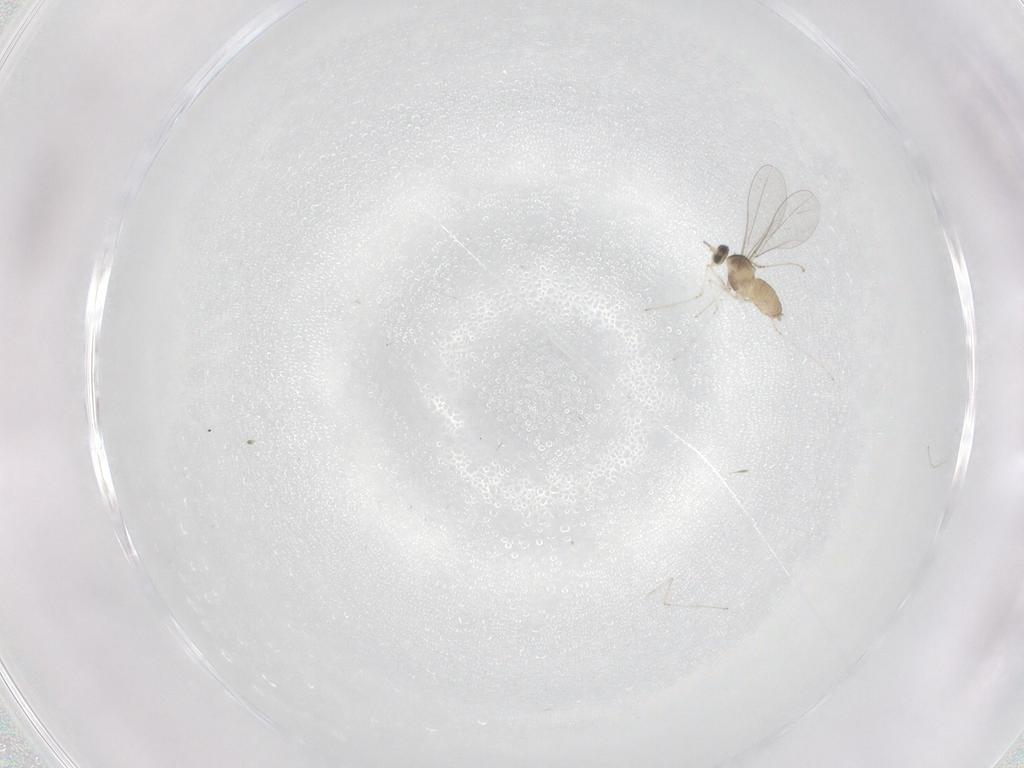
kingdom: Animalia
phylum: Arthropoda
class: Insecta
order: Diptera
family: Cecidomyiidae
